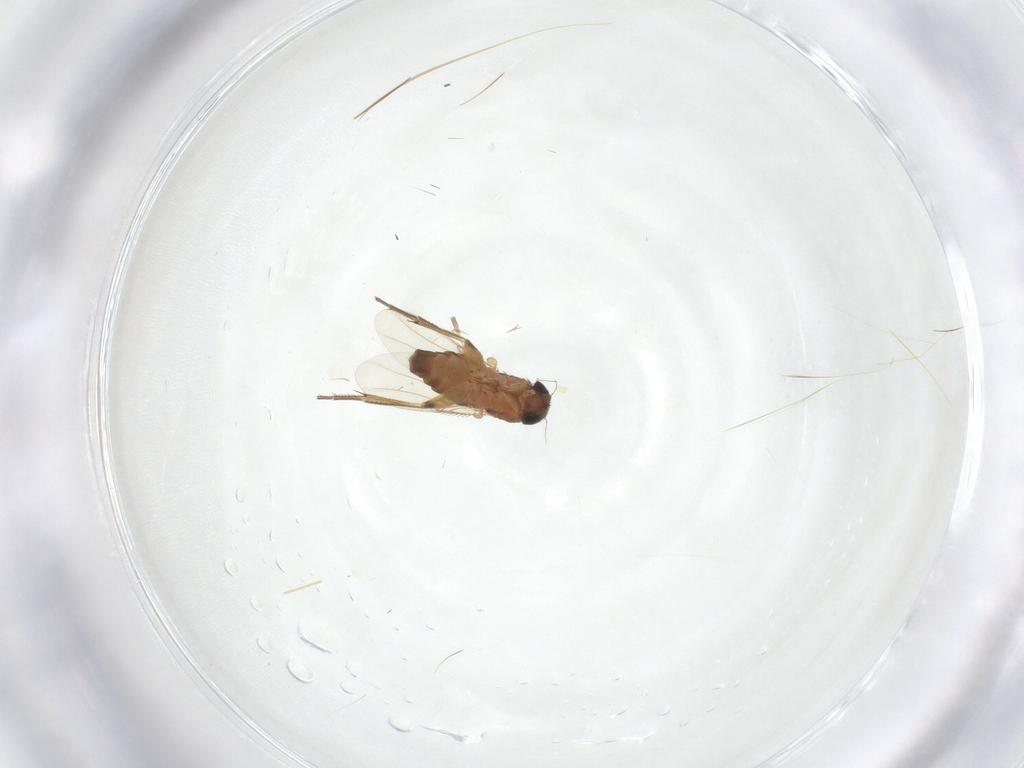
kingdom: Animalia
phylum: Arthropoda
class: Insecta
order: Diptera
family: Phoridae
